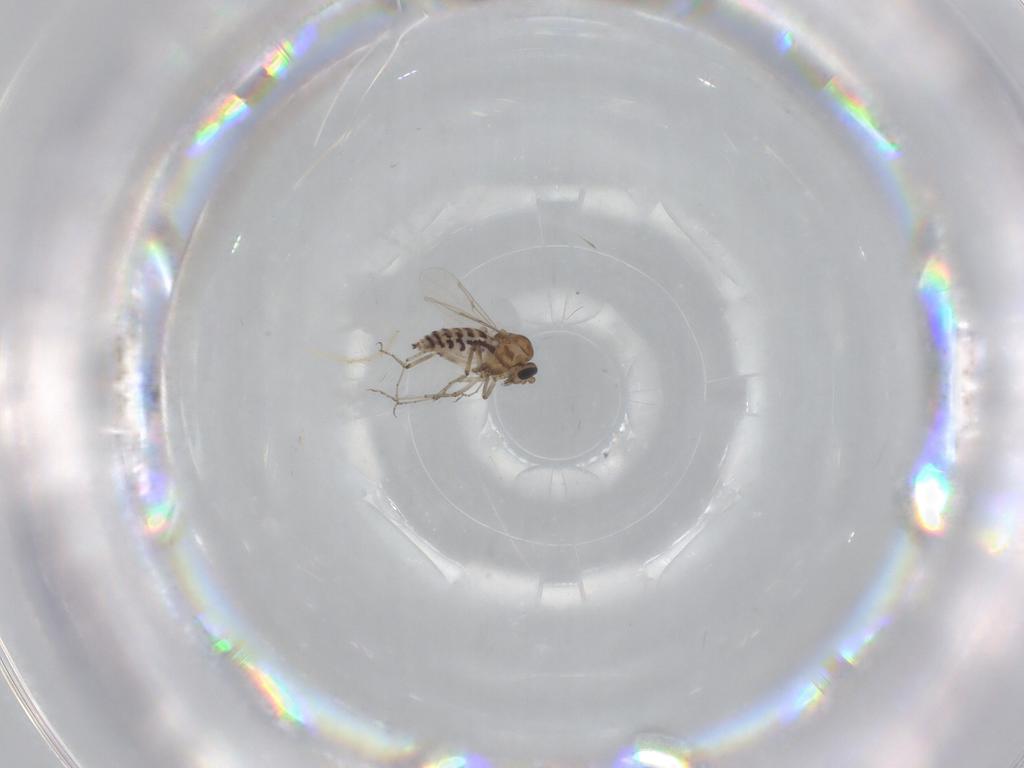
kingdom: Animalia
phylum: Arthropoda
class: Insecta
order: Diptera
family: Ceratopogonidae
